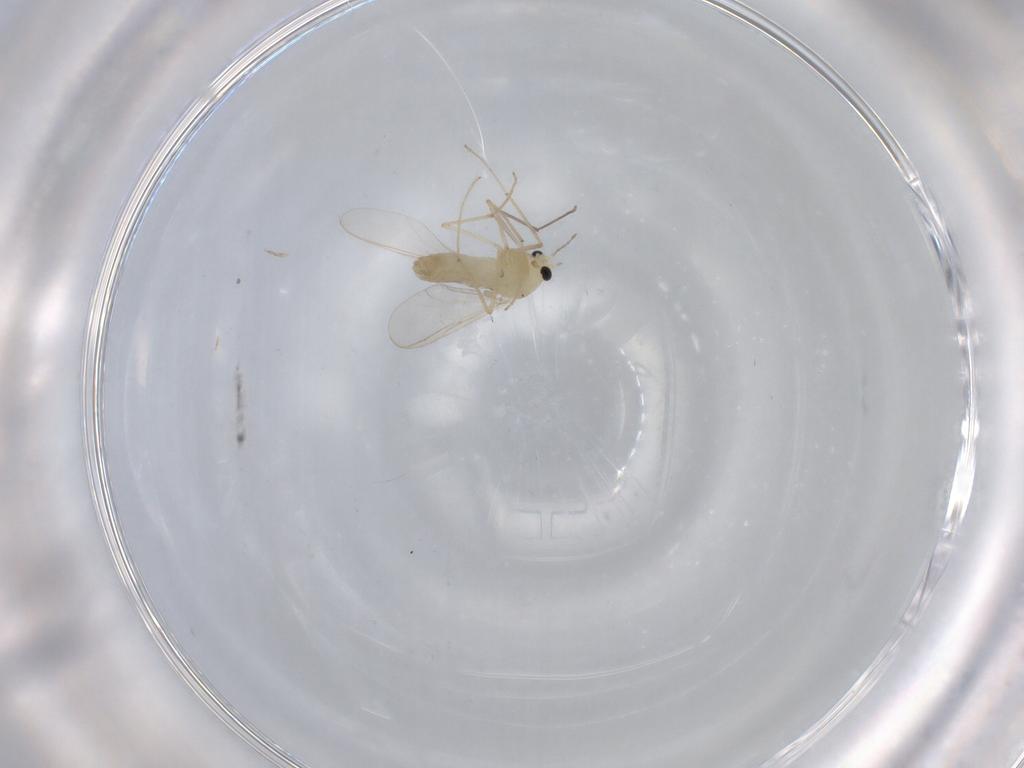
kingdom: Animalia
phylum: Arthropoda
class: Insecta
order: Diptera
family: Chironomidae
